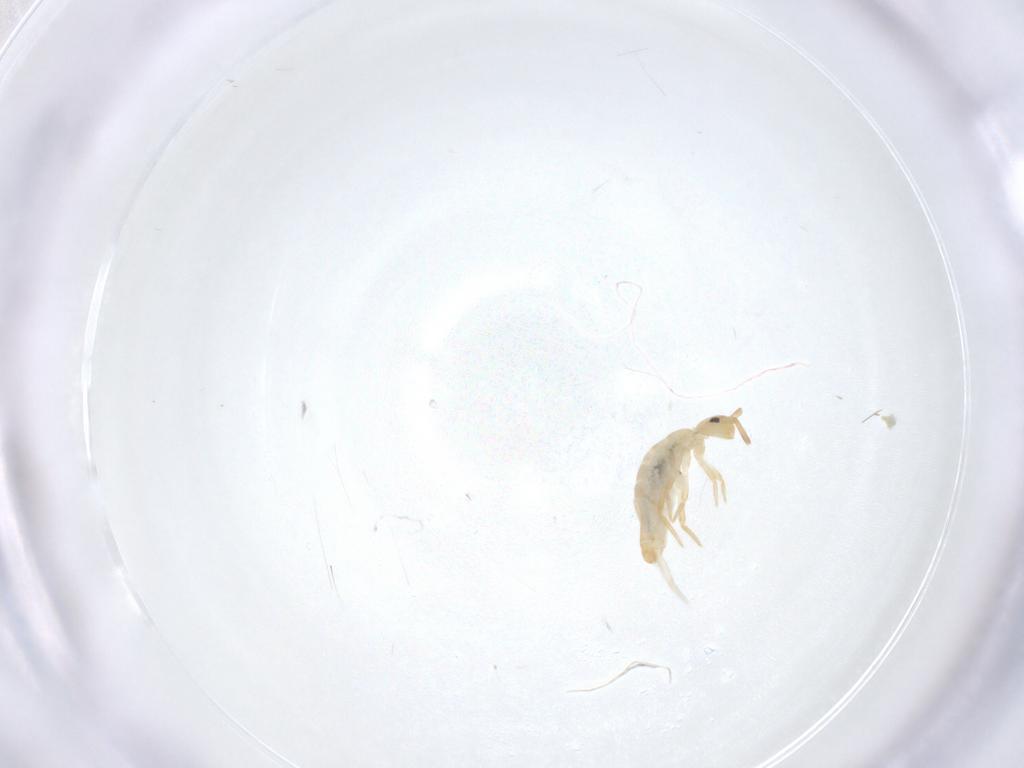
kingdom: Animalia
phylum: Arthropoda
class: Collembola
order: Entomobryomorpha
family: Entomobryidae
